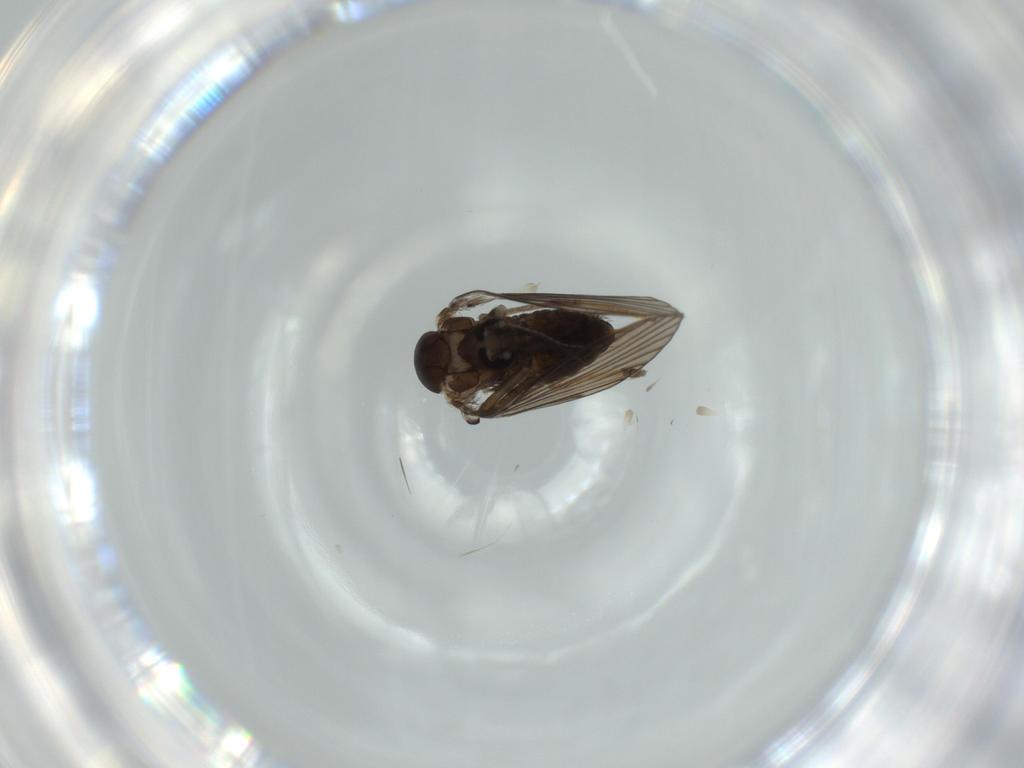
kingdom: Animalia
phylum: Arthropoda
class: Insecta
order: Diptera
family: Psychodidae
